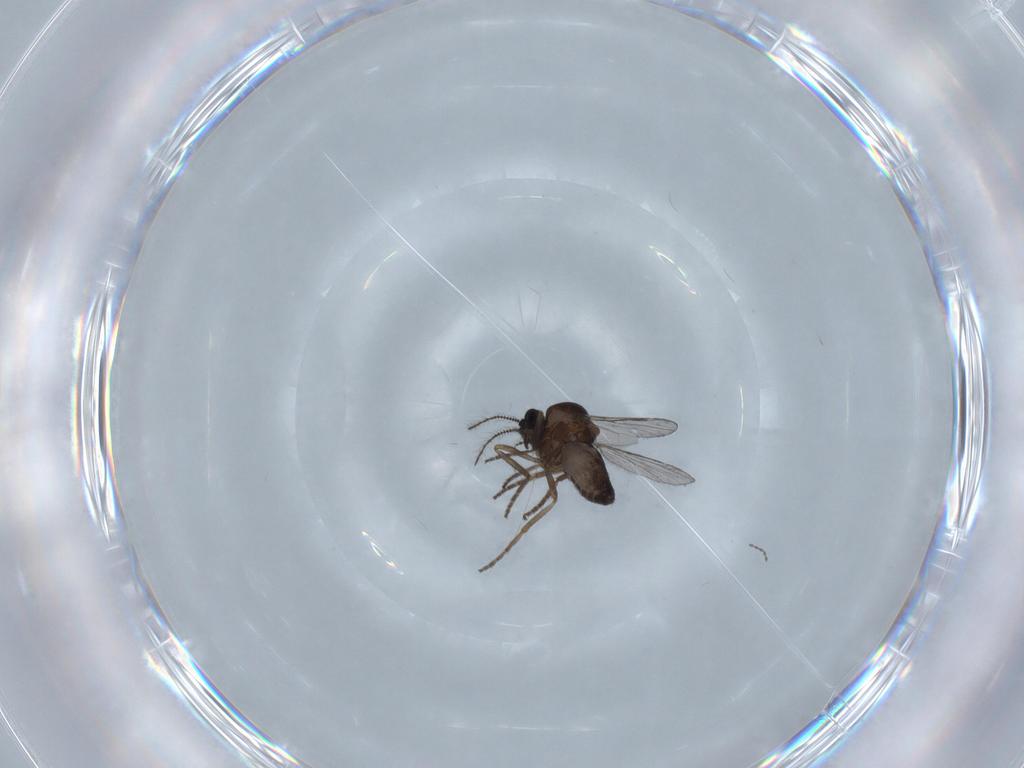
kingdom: Animalia
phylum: Arthropoda
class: Insecta
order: Diptera
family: Cecidomyiidae
